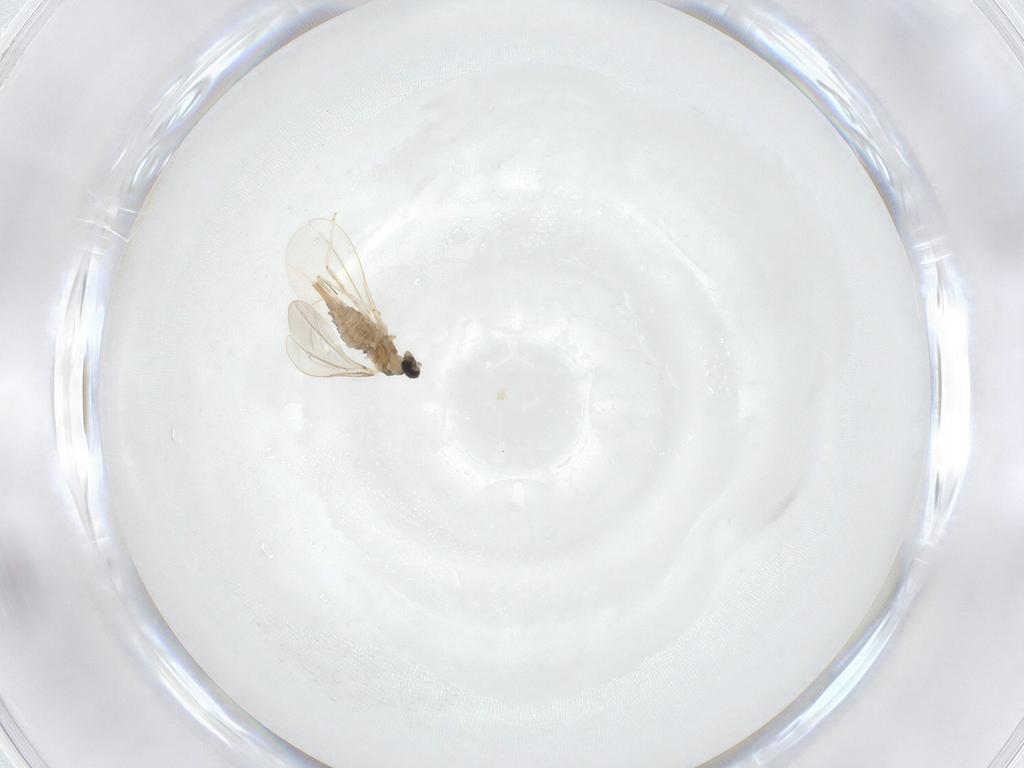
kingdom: Animalia
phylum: Arthropoda
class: Insecta
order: Diptera
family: Cecidomyiidae
